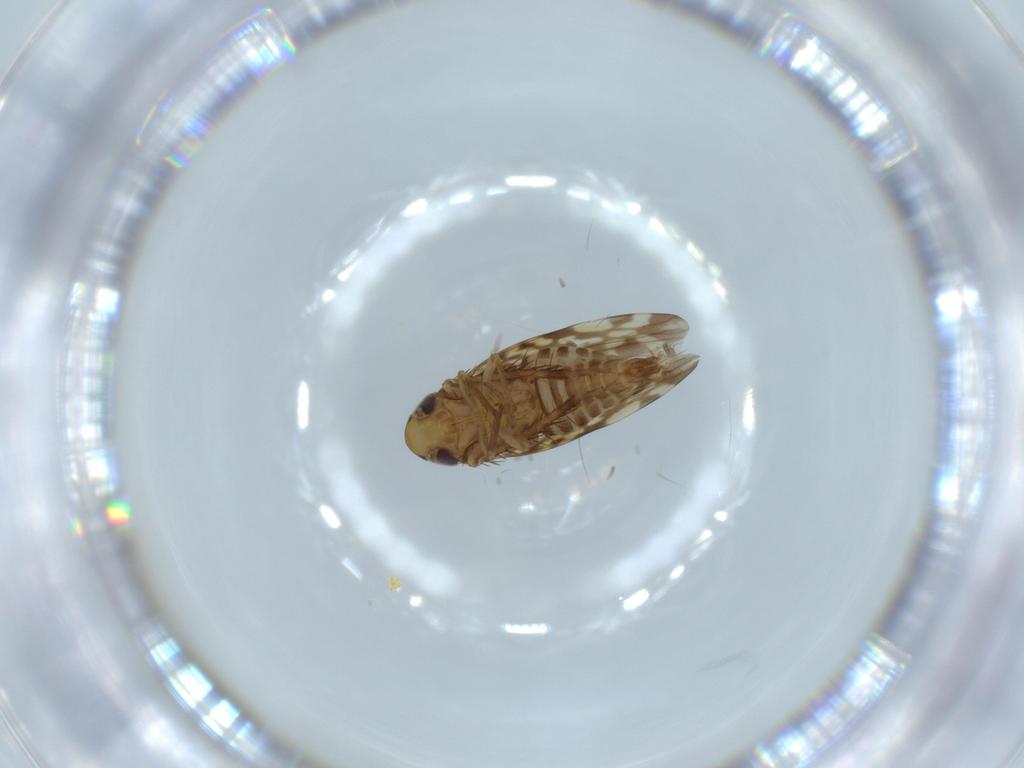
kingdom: Animalia
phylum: Arthropoda
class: Insecta
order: Hemiptera
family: Cicadellidae
